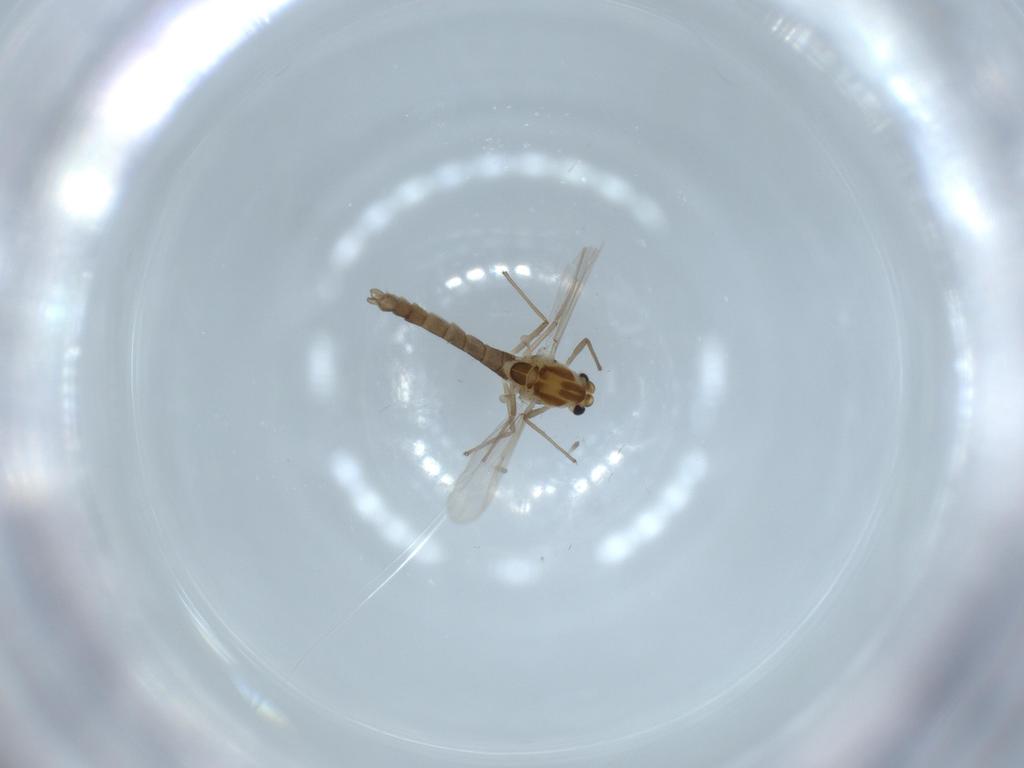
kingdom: Animalia
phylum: Arthropoda
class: Insecta
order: Diptera
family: Chironomidae
